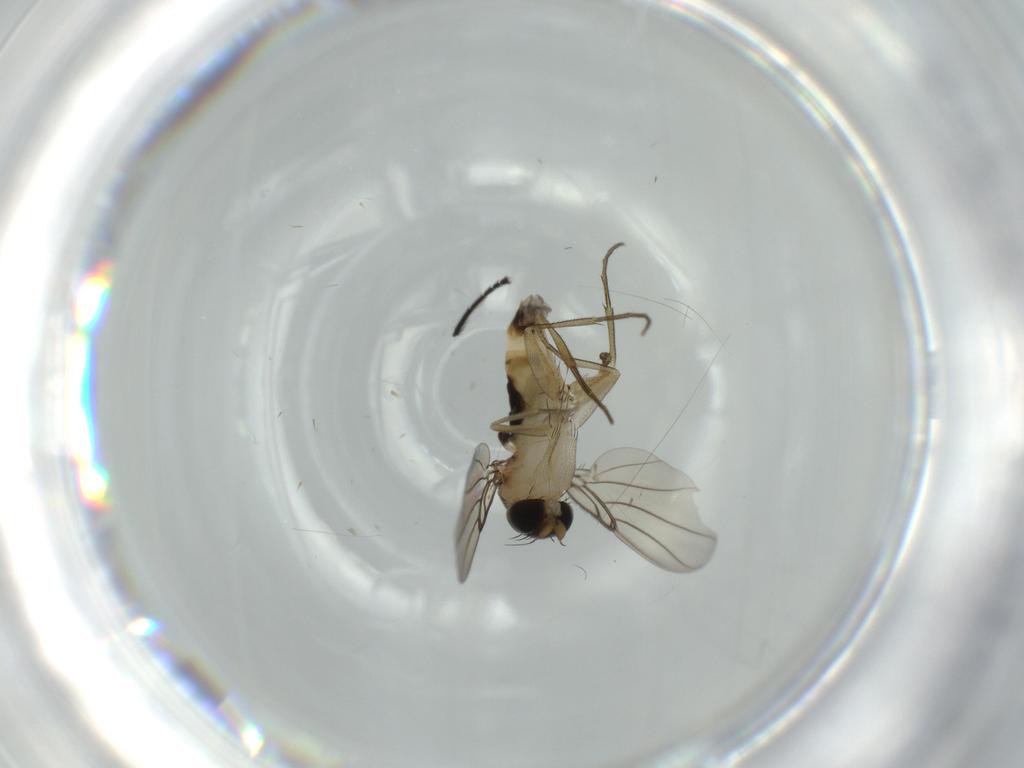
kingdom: Animalia
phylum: Arthropoda
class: Insecta
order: Diptera
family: Phoridae
